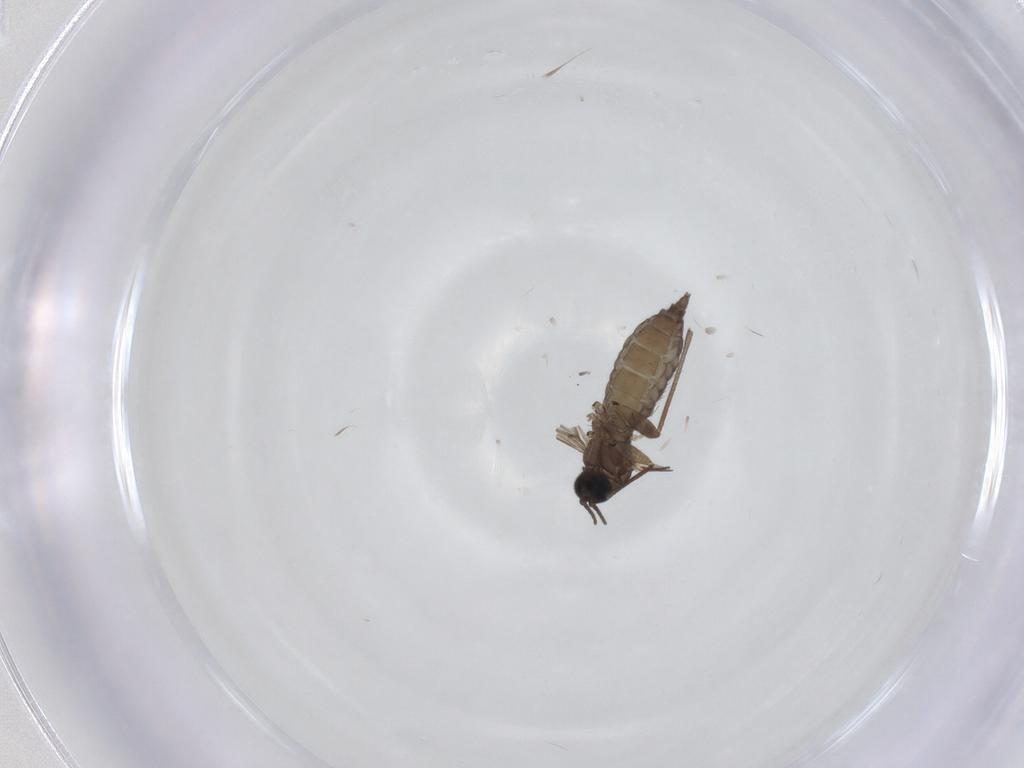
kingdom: Animalia
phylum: Arthropoda
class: Insecta
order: Diptera
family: Sciaridae
